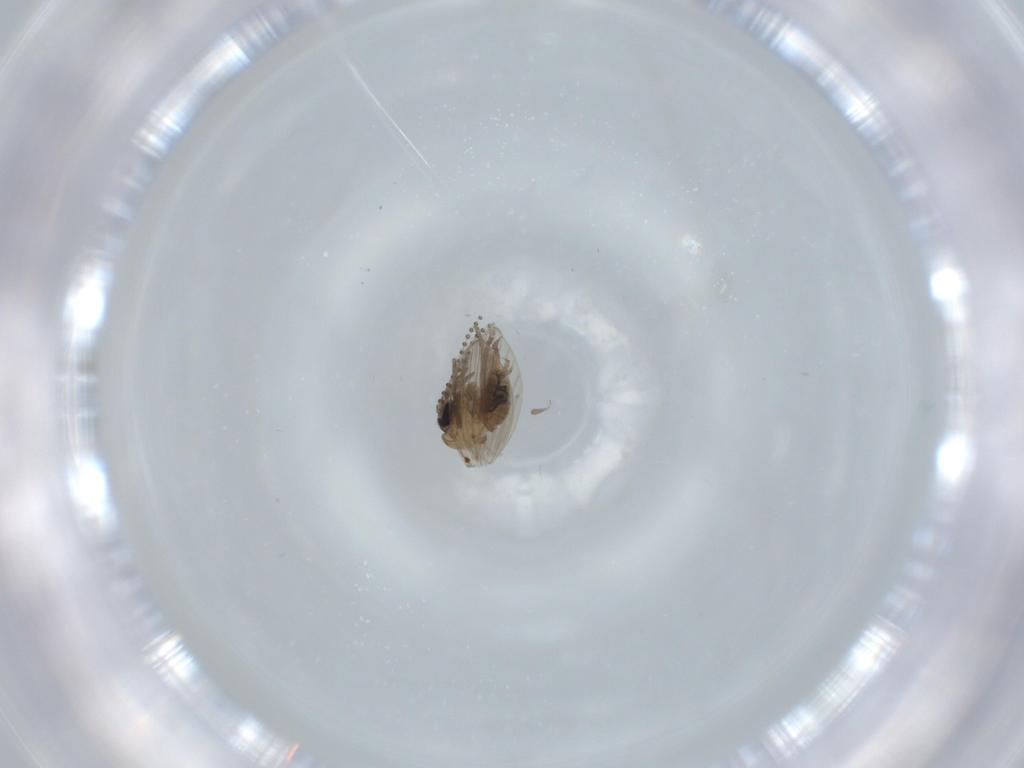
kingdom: Animalia
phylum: Arthropoda
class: Insecta
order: Diptera
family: Psychodidae
